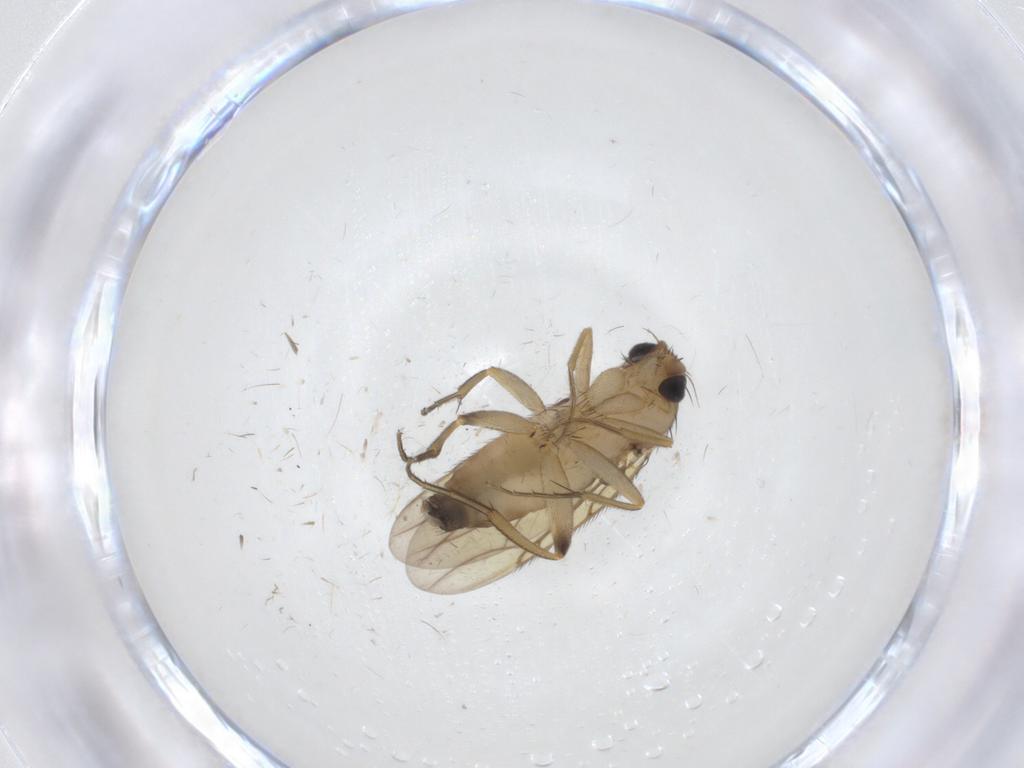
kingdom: Animalia
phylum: Arthropoda
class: Insecta
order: Diptera
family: Phoridae
